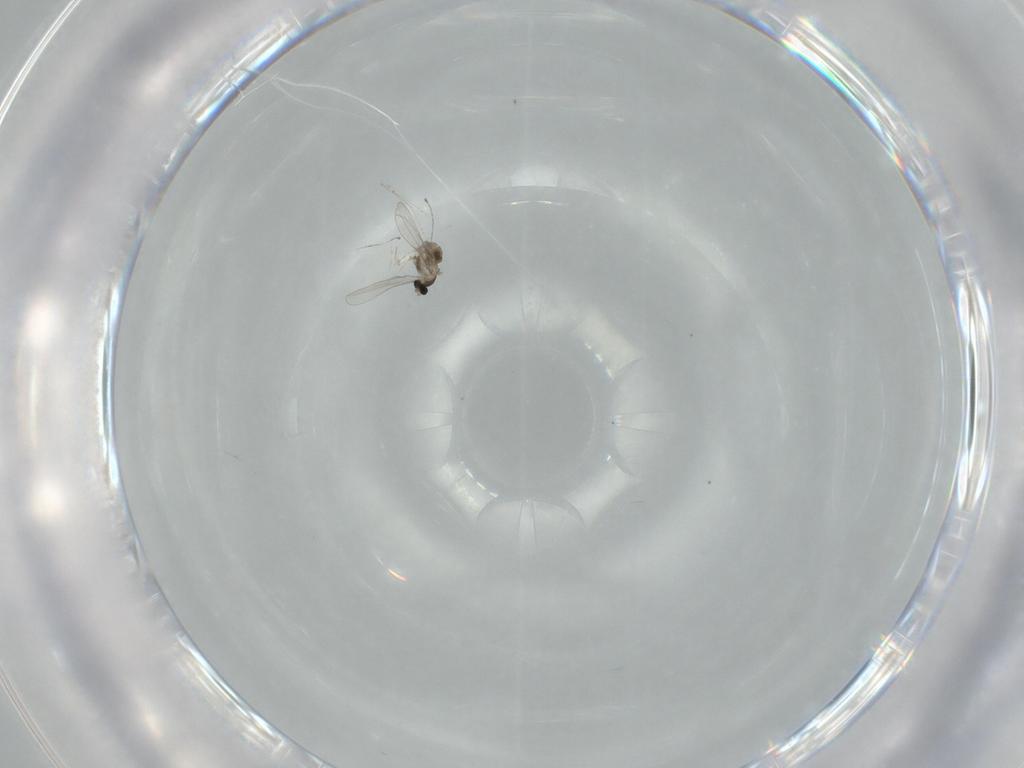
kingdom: Animalia
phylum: Arthropoda
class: Insecta
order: Diptera
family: Cecidomyiidae
